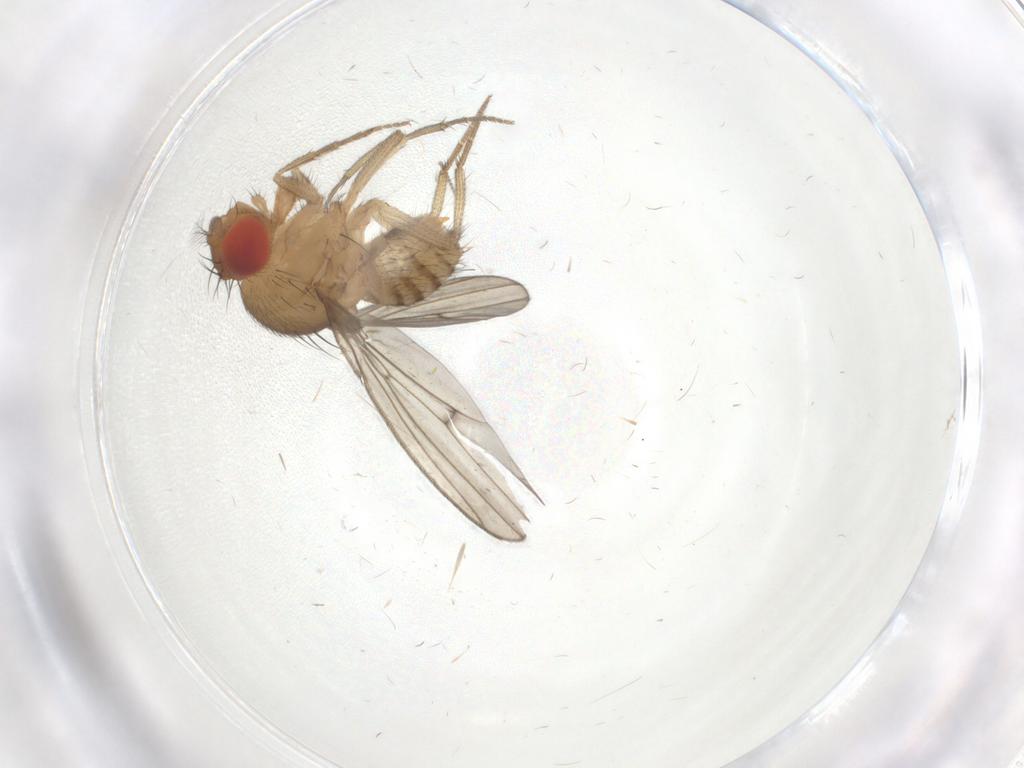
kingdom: Animalia
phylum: Arthropoda
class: Insecta
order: Diptera
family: Drosophilidae
